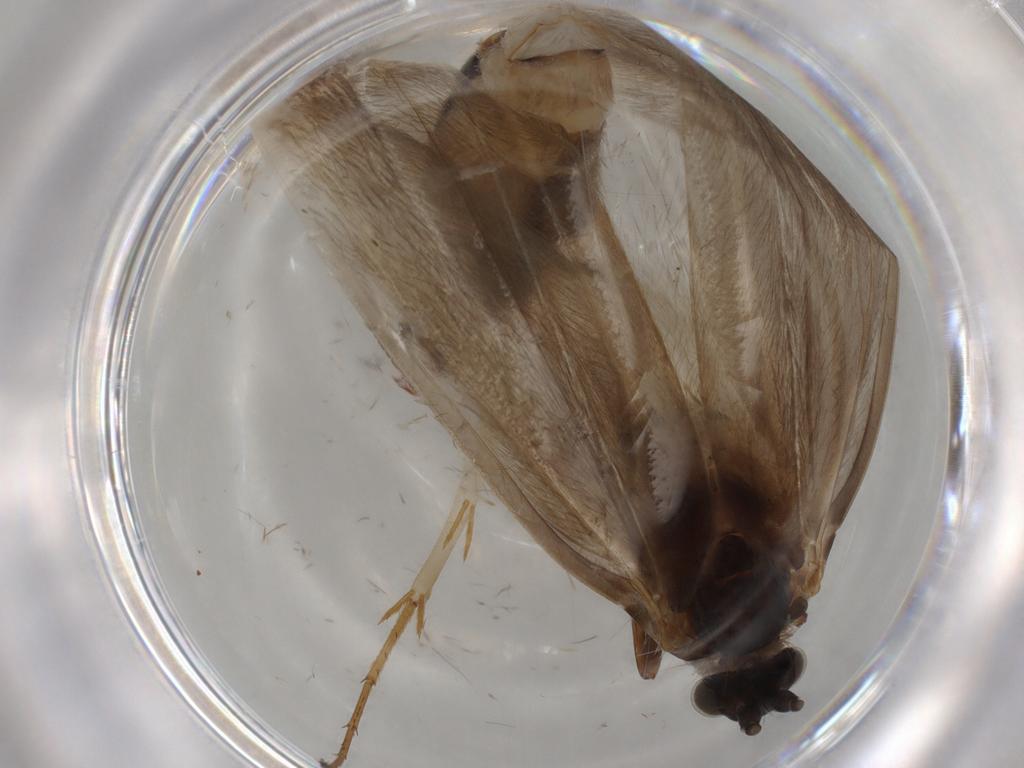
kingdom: Animalia
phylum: Arthropoda
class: Insecta
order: Lepidoptera
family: Adelidae
